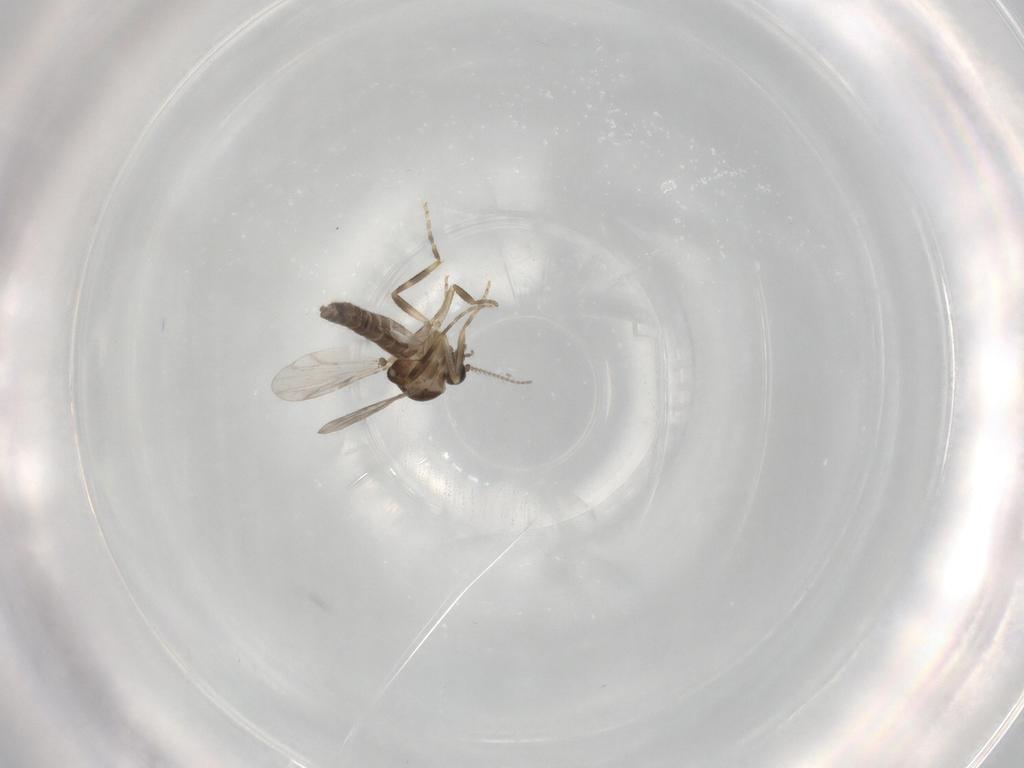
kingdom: Animalia
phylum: Arthropoda
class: Insecta
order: Diptera
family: Ceratopogonidae
